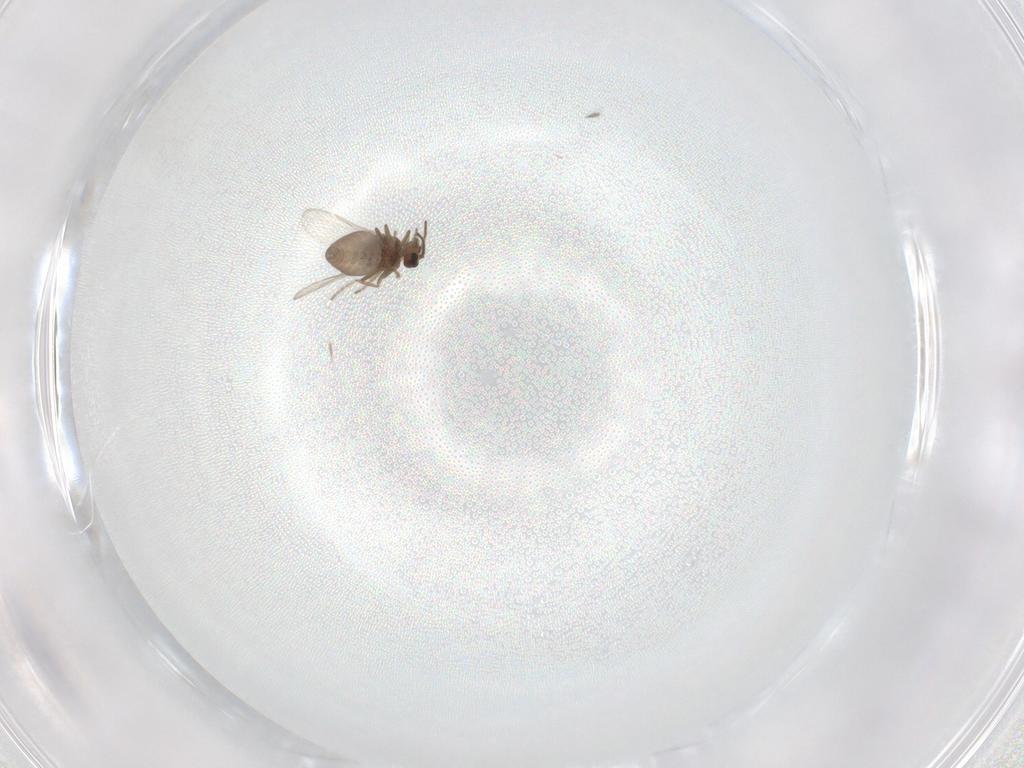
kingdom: Animalia
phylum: Arthropoda
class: Insecta
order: Diptera
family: Ceratopogonidae
